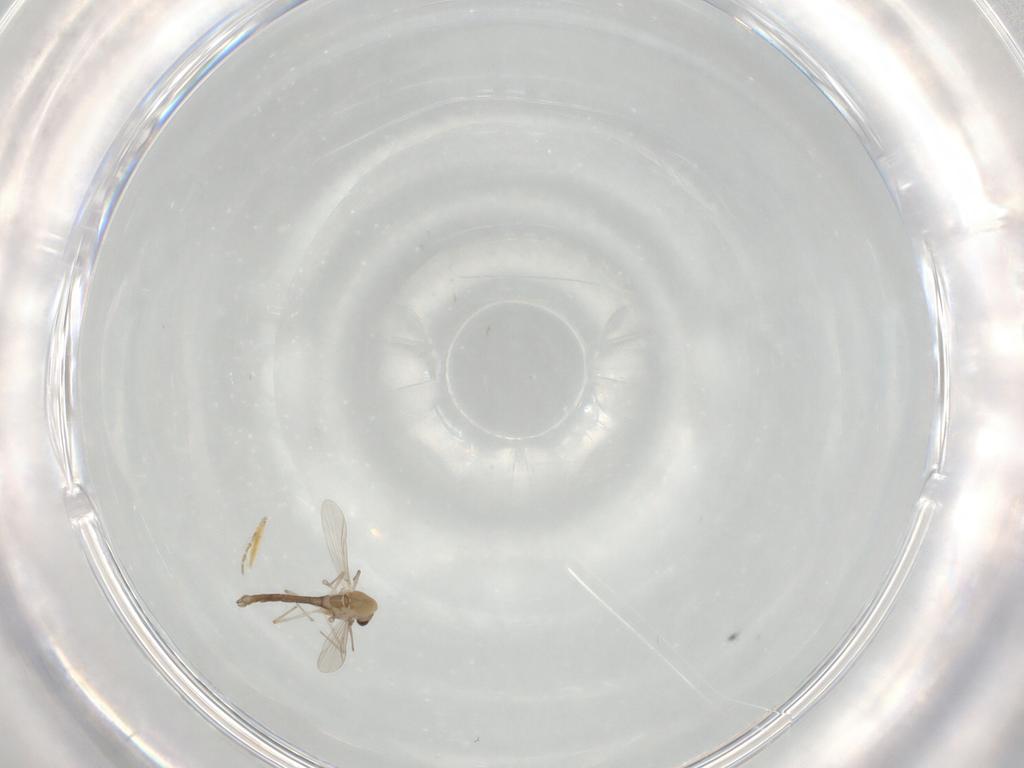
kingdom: Animalia
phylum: Arthropoda
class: Insecta
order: Diptera
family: Chironomidae
